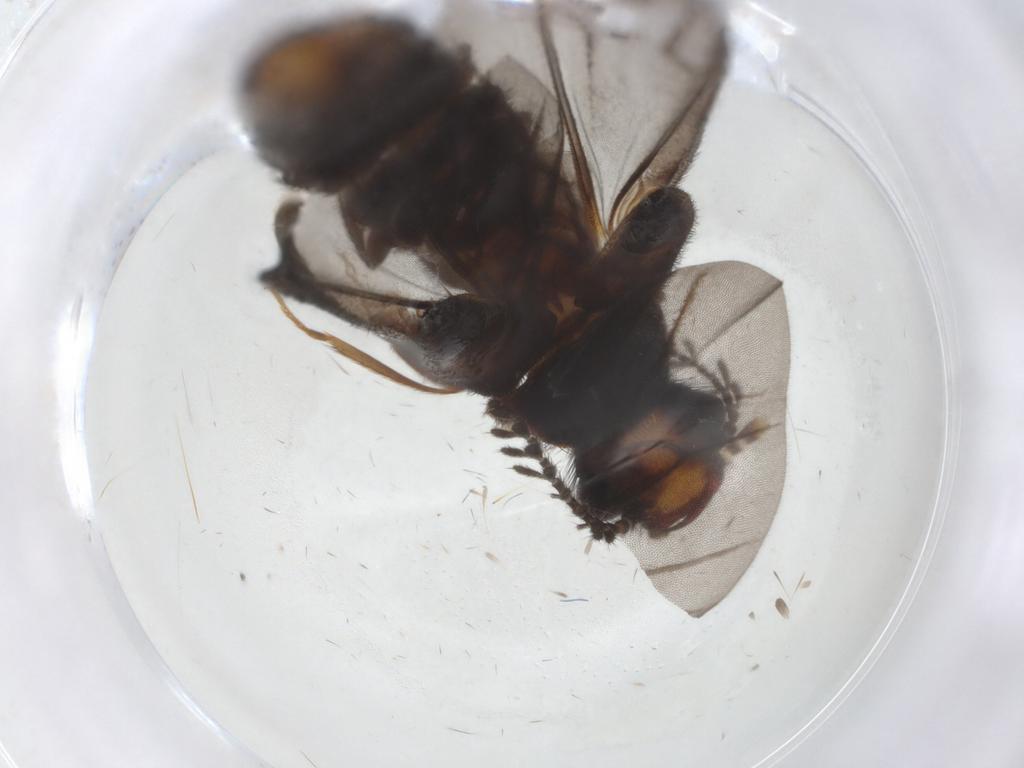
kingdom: Animalia
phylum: Arthropoda
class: Insecta
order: Coleoptera
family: Phengodidae
